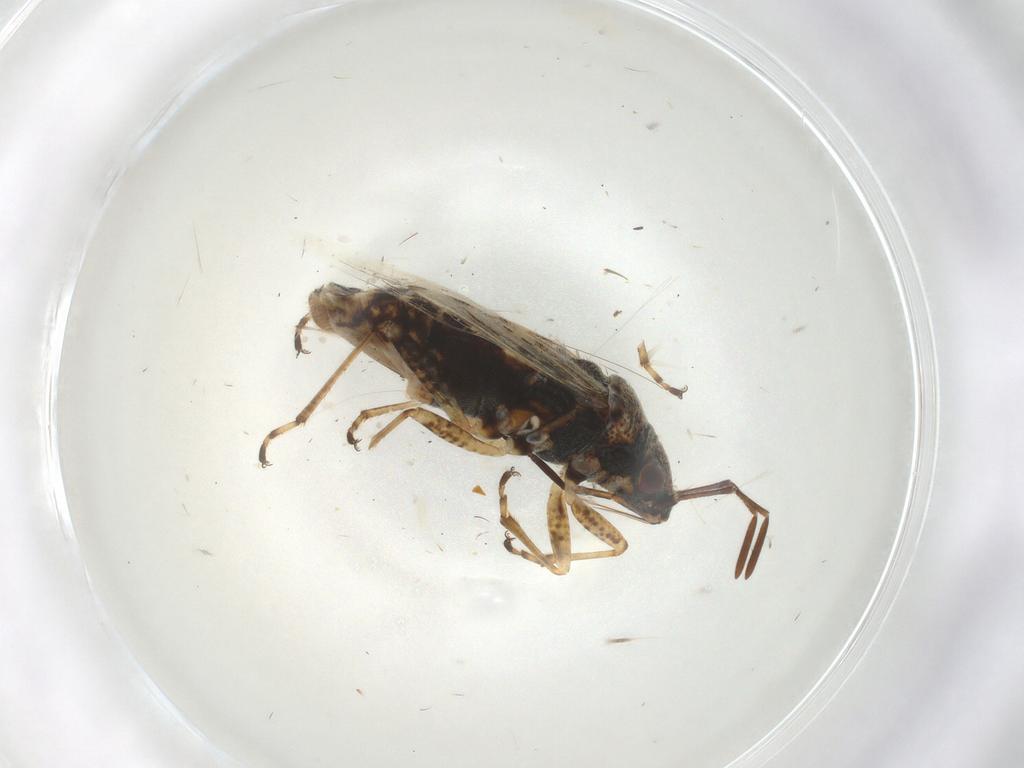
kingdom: Animalia
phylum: Arthropoda
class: Insecta
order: Hemiptera
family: Lygaeidae
